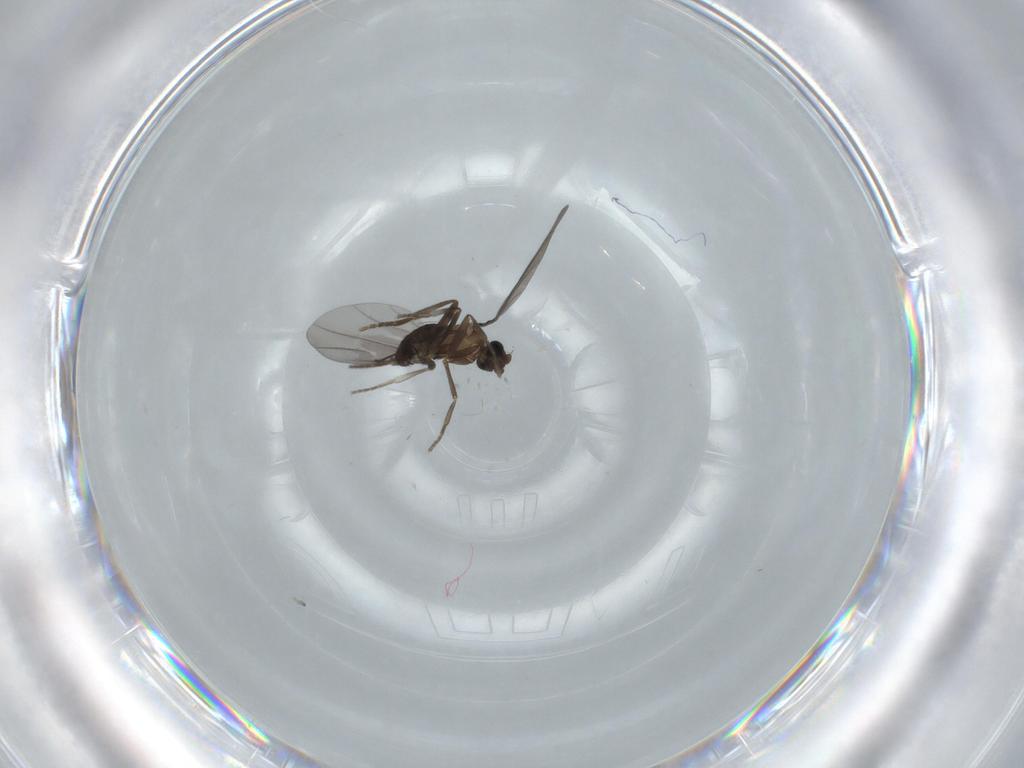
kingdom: Animalia
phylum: Arthropoda
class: Insecta
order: Diptera
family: Phoridae
